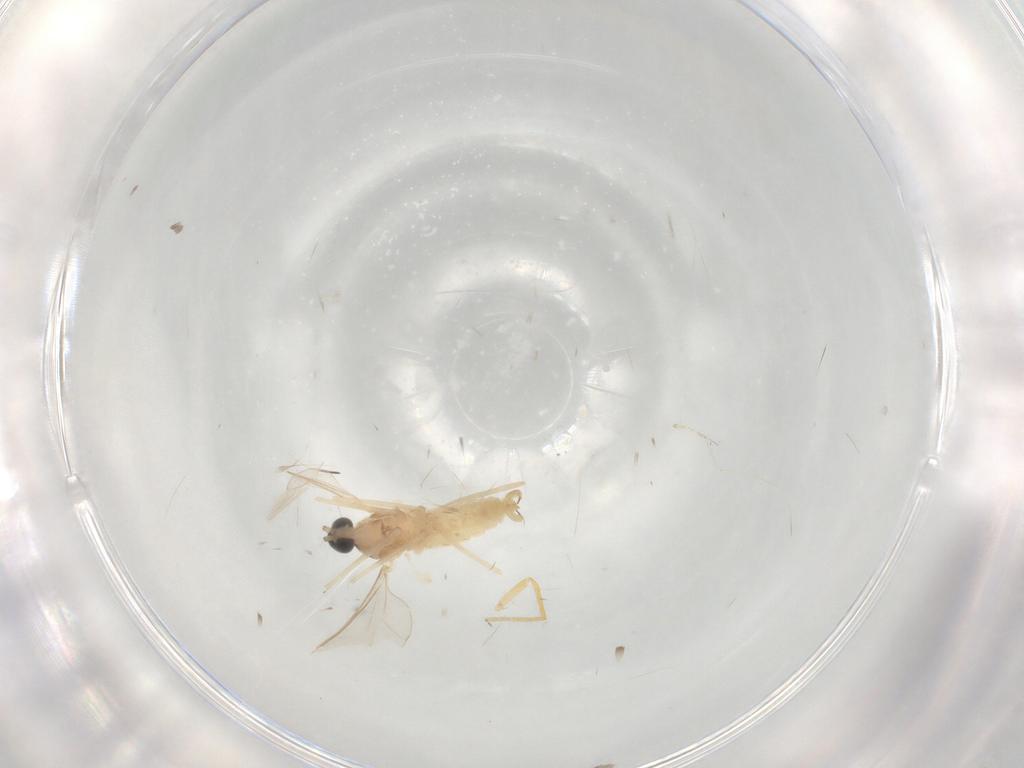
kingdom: Animalia
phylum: Arthropoda
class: Insecta
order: Diptera
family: Cecidomyiidae
